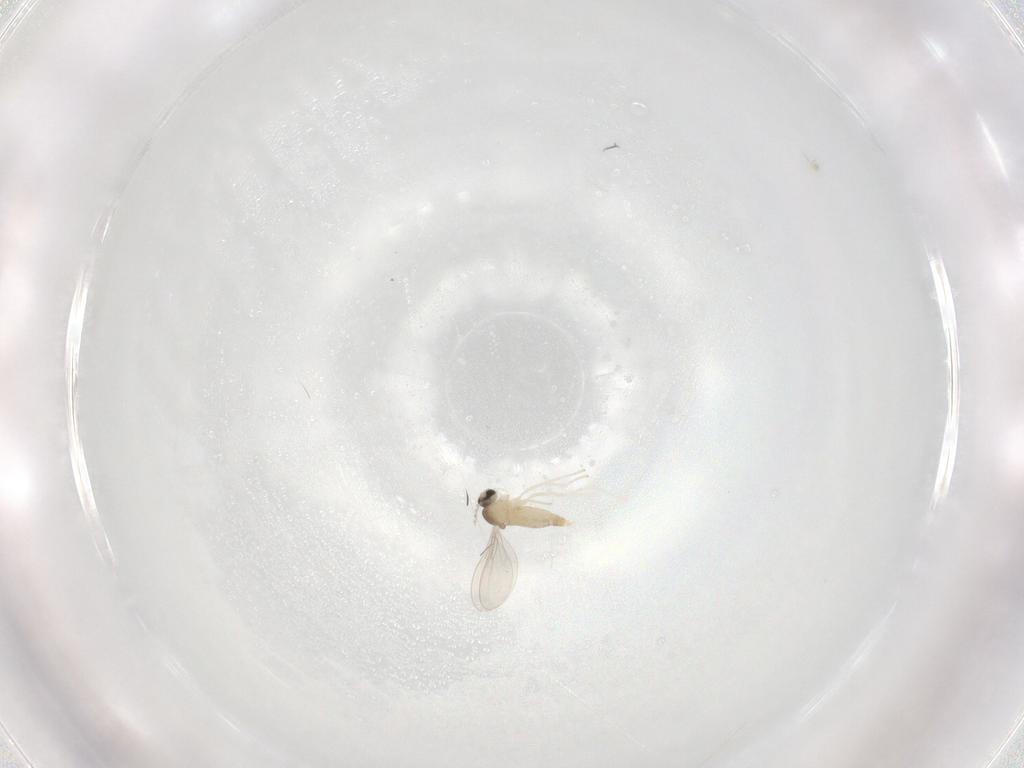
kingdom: Animalia
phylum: Arthropoda
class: Insecta
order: Diptera
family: Cecidomyiidae
